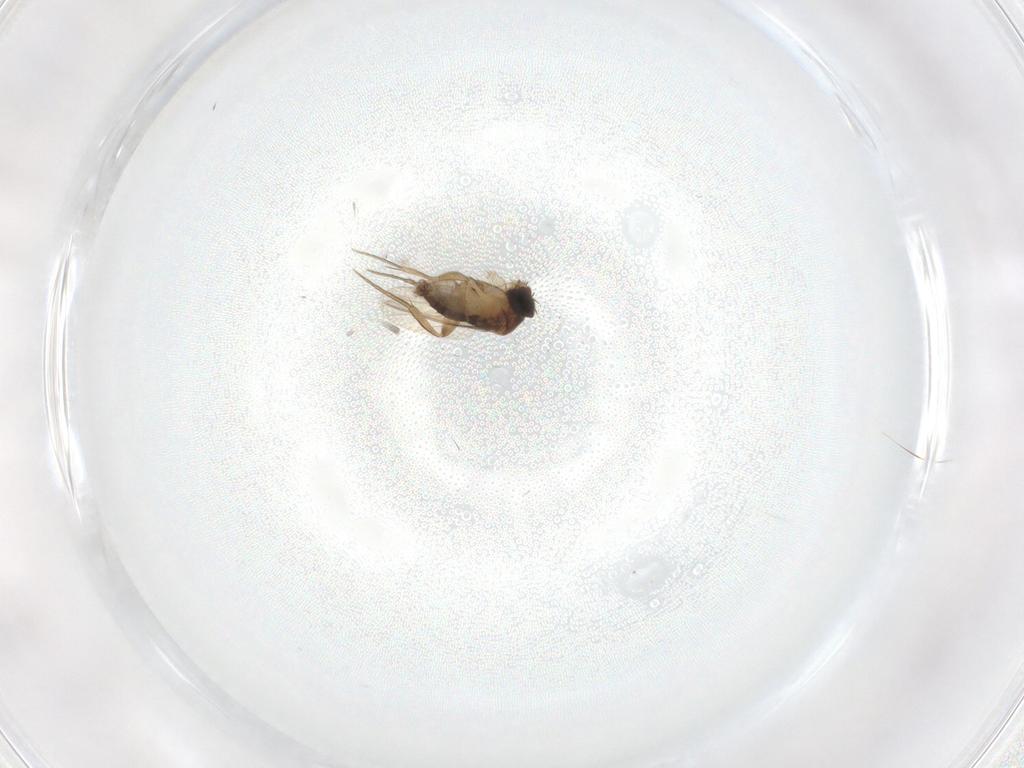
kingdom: Animalia
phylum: Arthropoda
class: Insecta
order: Diptera
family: Phoridae
